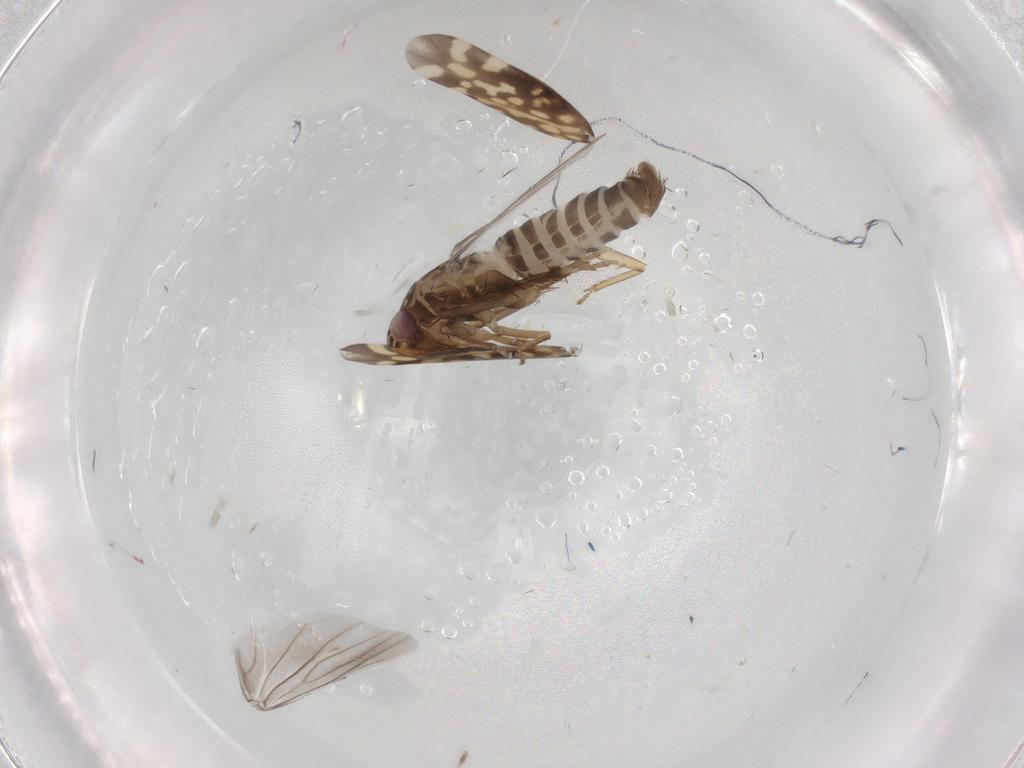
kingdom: Animalia
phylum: Arthropoda
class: Insecta
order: Hemiptera
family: Cicadellidae
